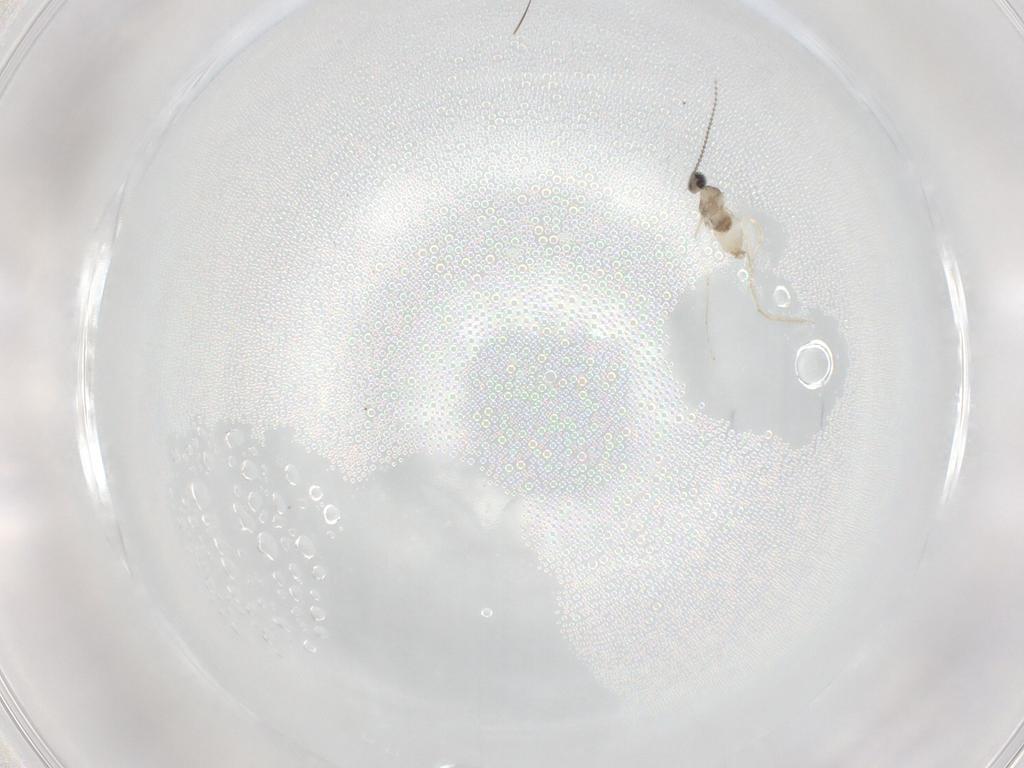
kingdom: Animalia
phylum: Arthropoda
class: Insecta
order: Diptera
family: Cecidomyiidae
